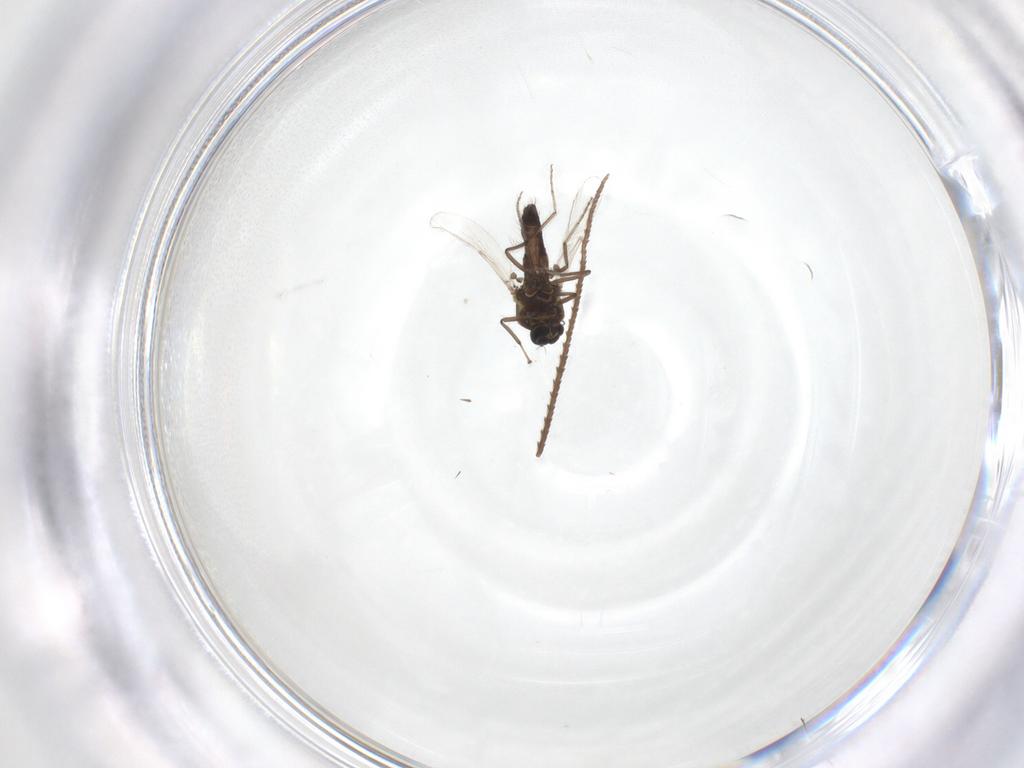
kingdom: Animalia
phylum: Arthropoda
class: Insecta
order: Diptera
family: Ceratopogonidae
